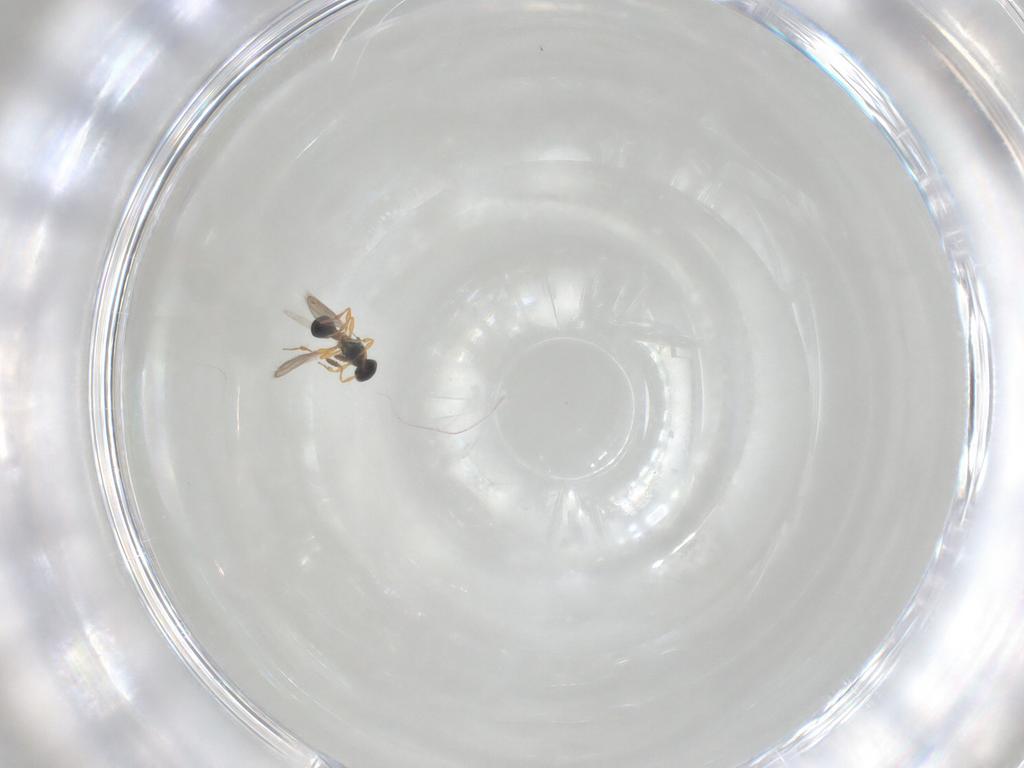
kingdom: Animalia
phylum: Arthropoda
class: Insecta
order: Hymenoptera
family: Platygastridae
